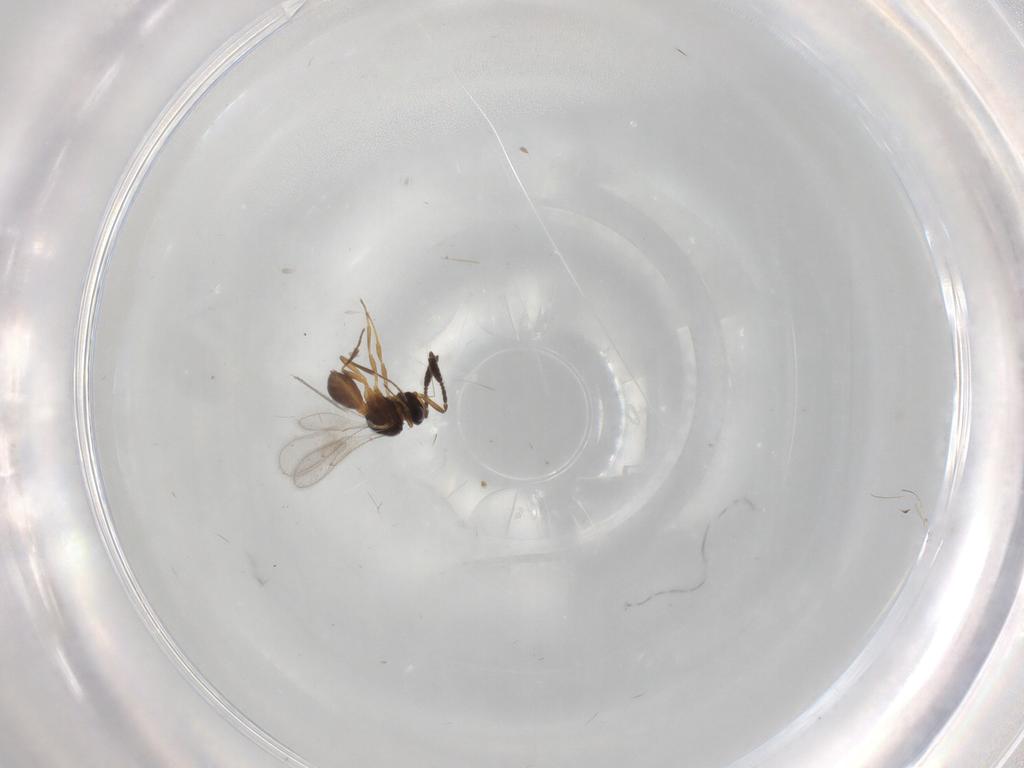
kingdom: Animalia
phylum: Arthropoda
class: Insecta
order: Hymenoptera
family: Scelionidae
